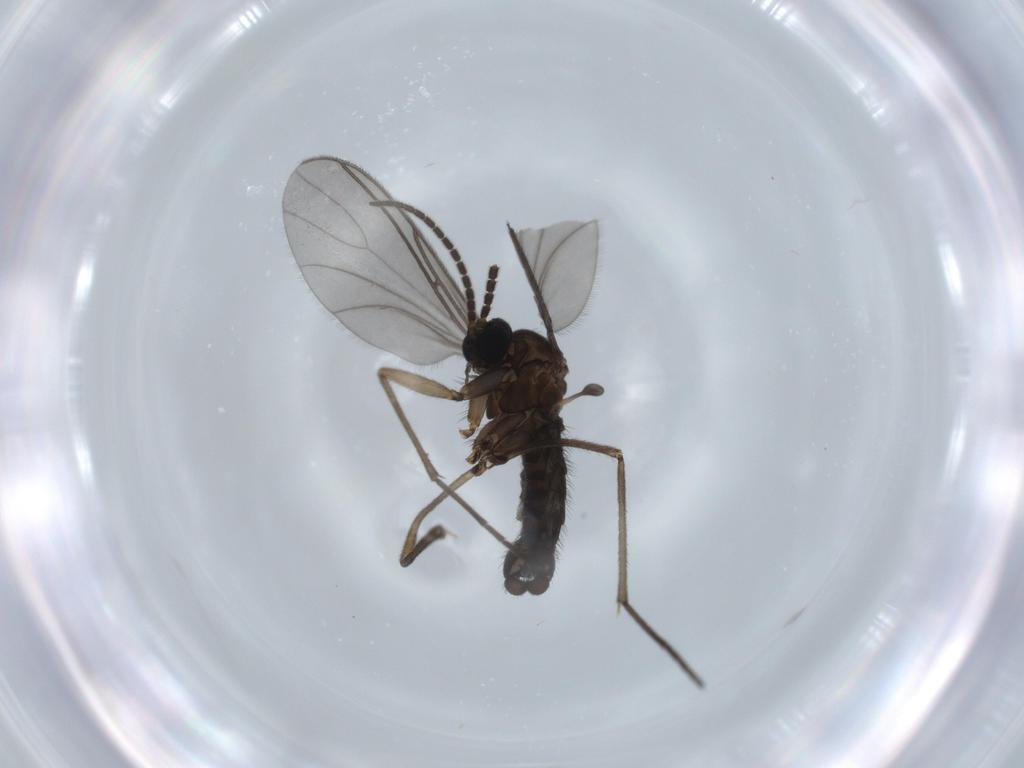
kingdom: Animalia
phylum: Arthropoda
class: Insecta
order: Diptera
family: Sciaridae
